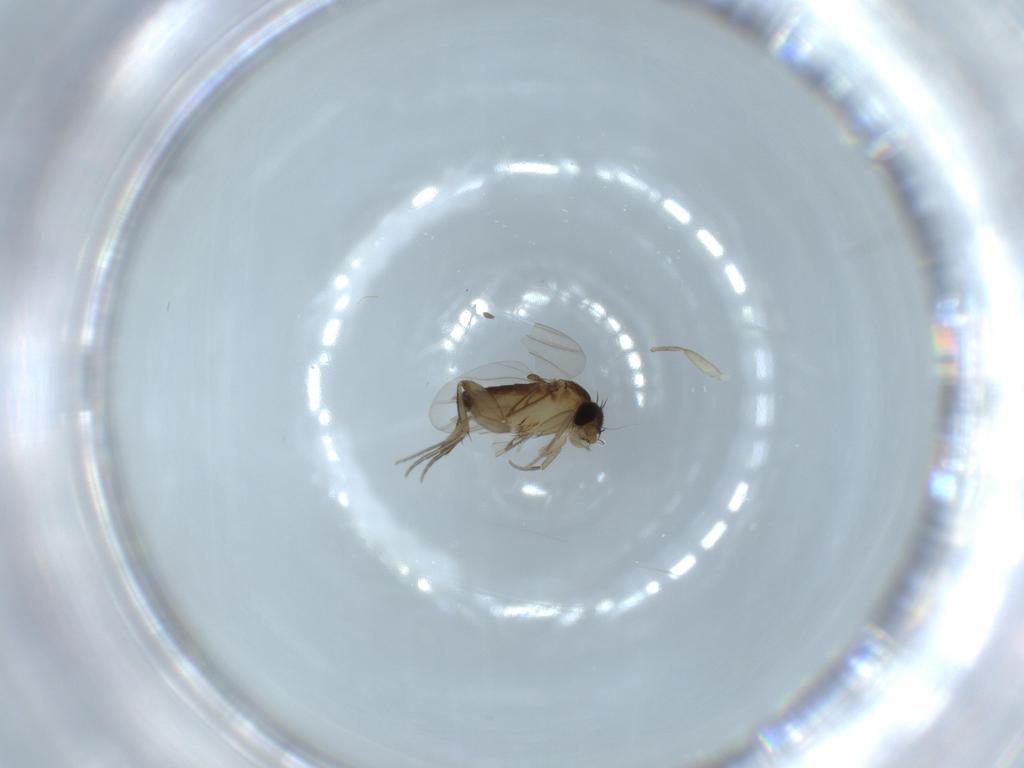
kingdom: Animalia
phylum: Arthropoda
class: Insecta
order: Diptera
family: Phoridae
